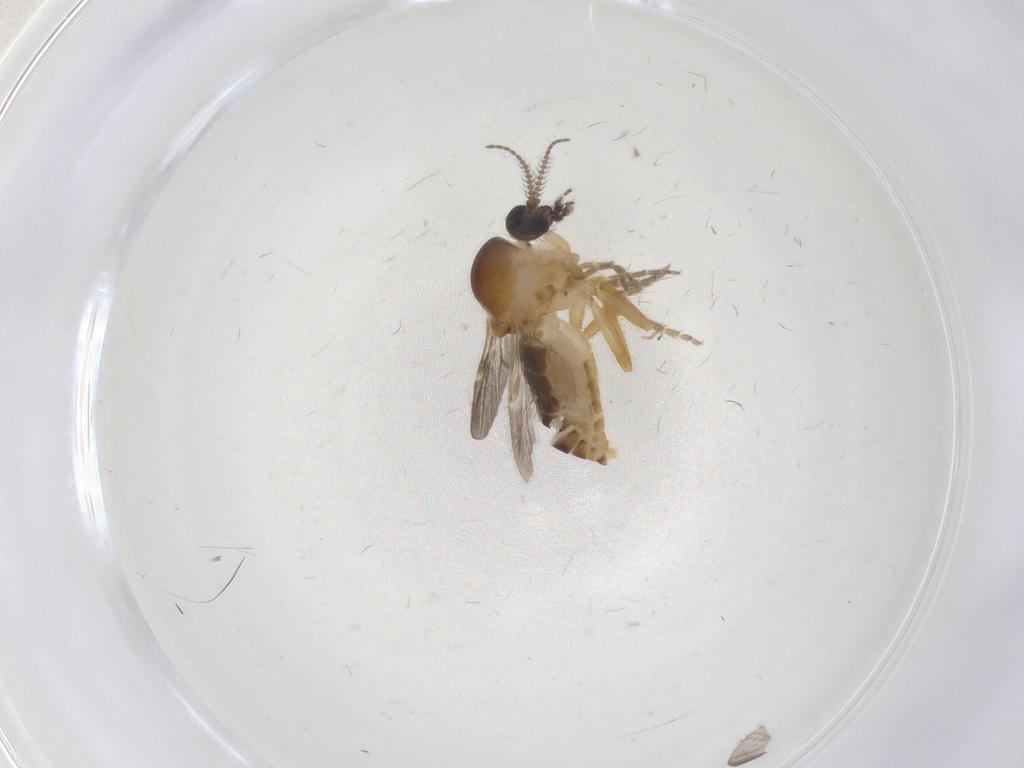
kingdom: Animalia
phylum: Arthropoda
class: Insecta
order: Diptera
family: Ceratopogonidae
